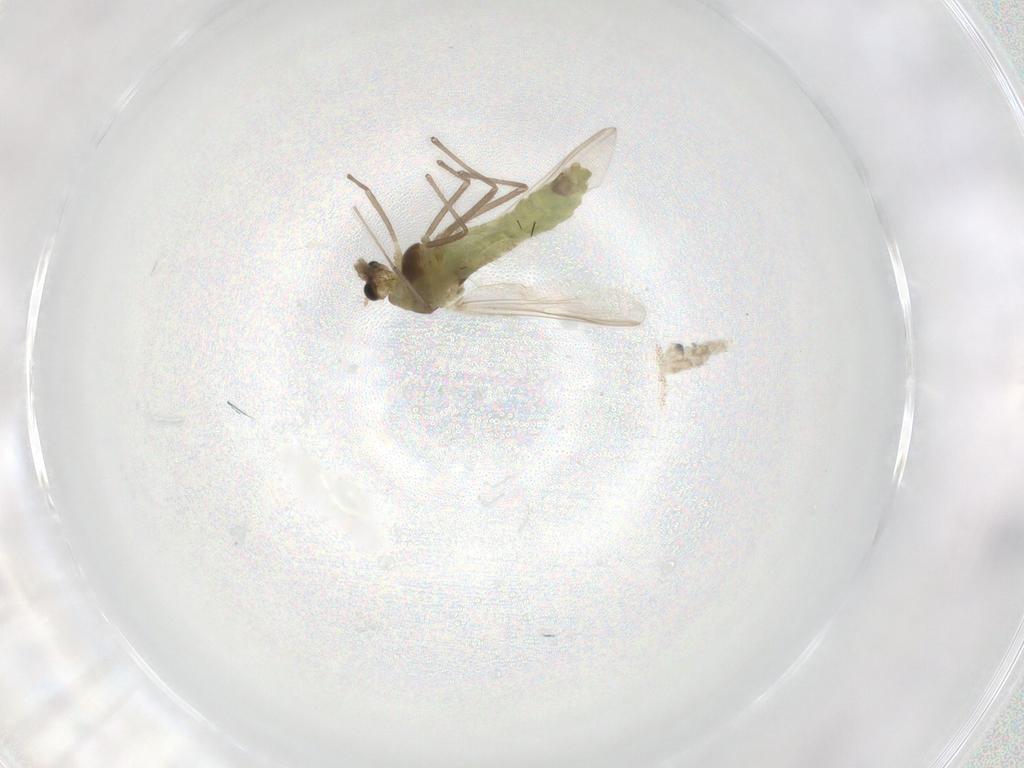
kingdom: Animalia
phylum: Arthropoda
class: Insecta
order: Diptera
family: Chironomidae
